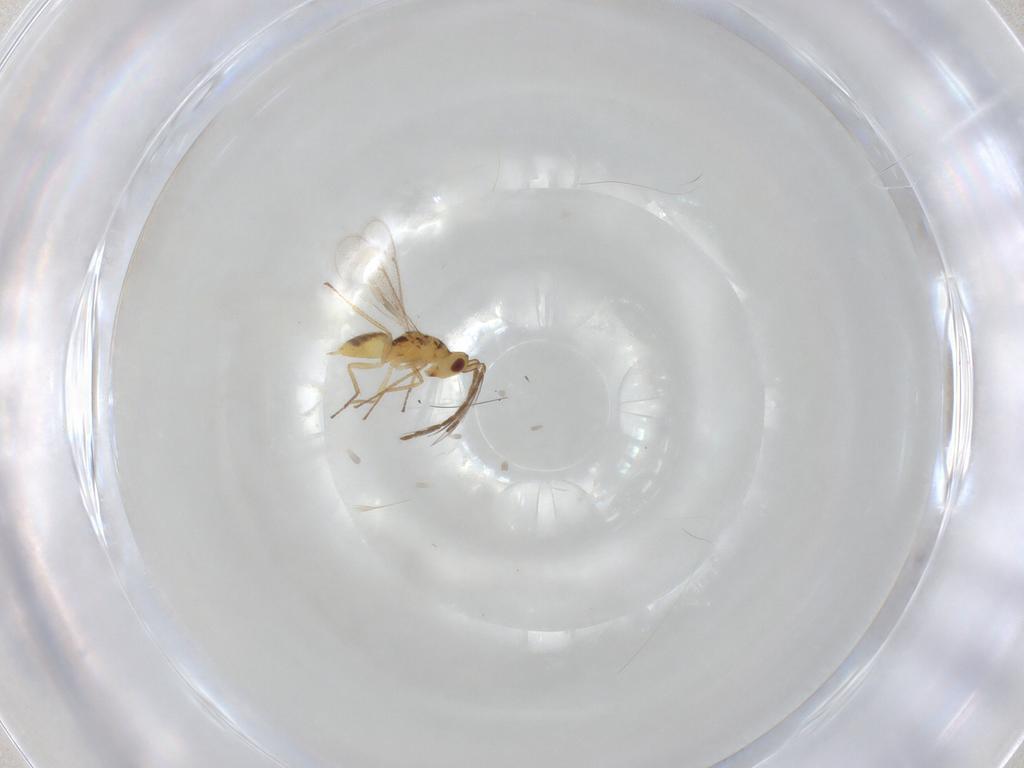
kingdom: Animalia
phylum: Arthropoda
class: Insecta
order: Hymenoptera
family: Eulophidae
